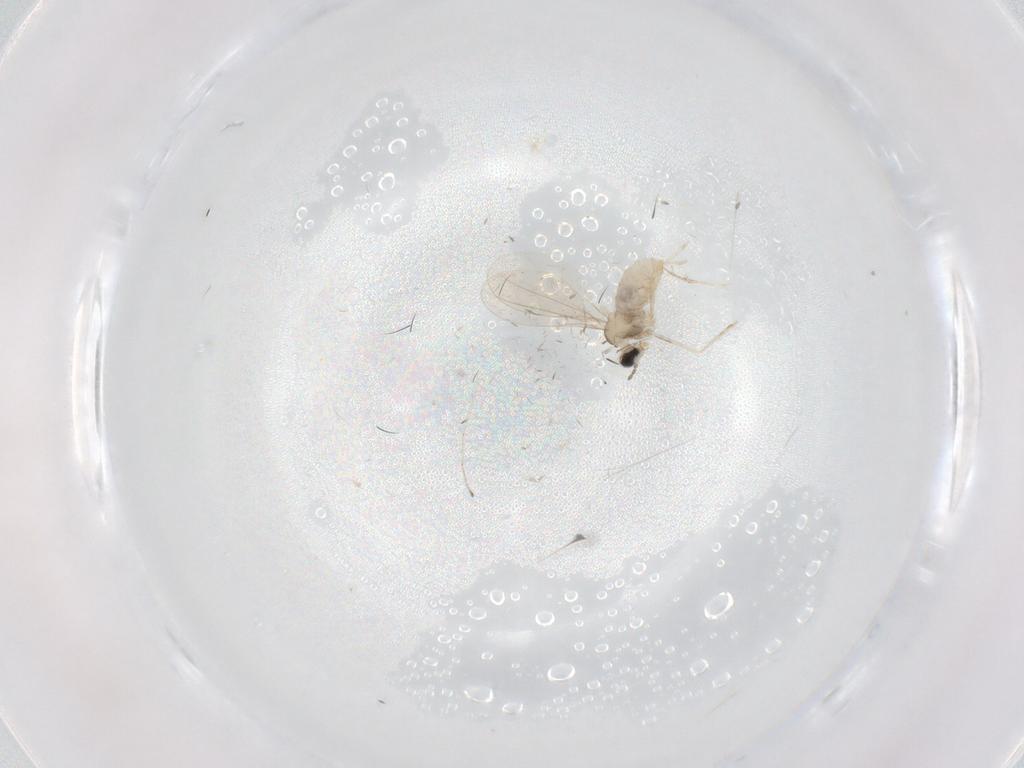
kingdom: Animalia
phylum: Arthropoda
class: Insecta
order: Diptera
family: Cecidomyiidae
